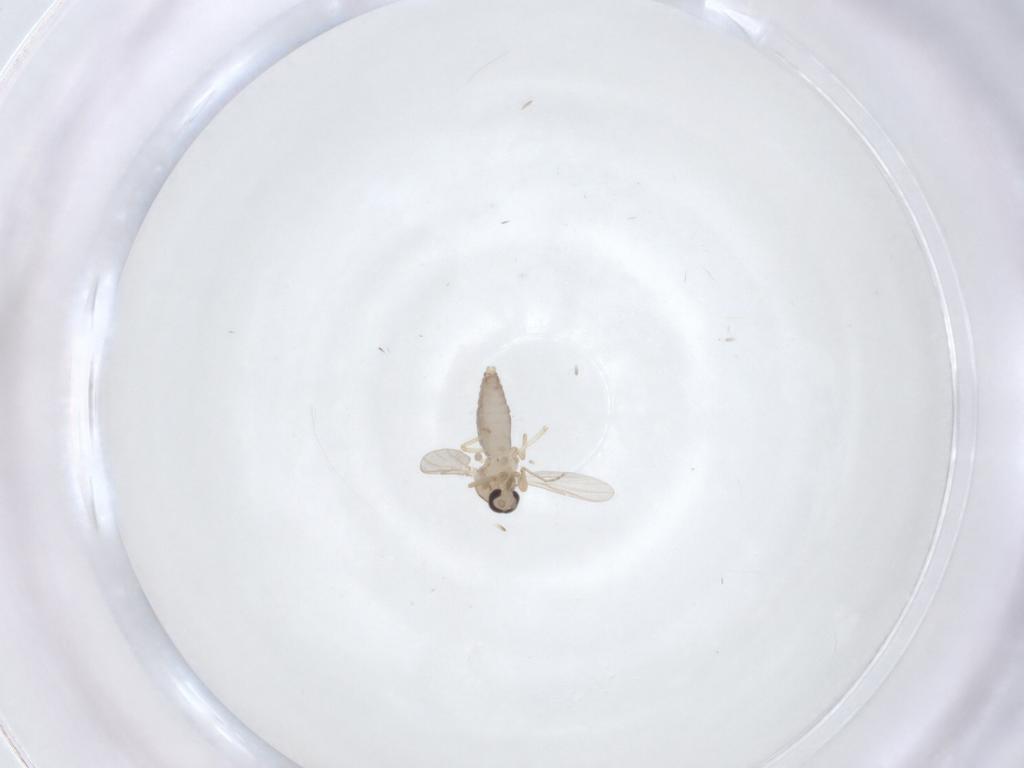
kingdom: Animalia
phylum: Arthropoda
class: Insecta
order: Diptera
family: Ceratopogonidae
